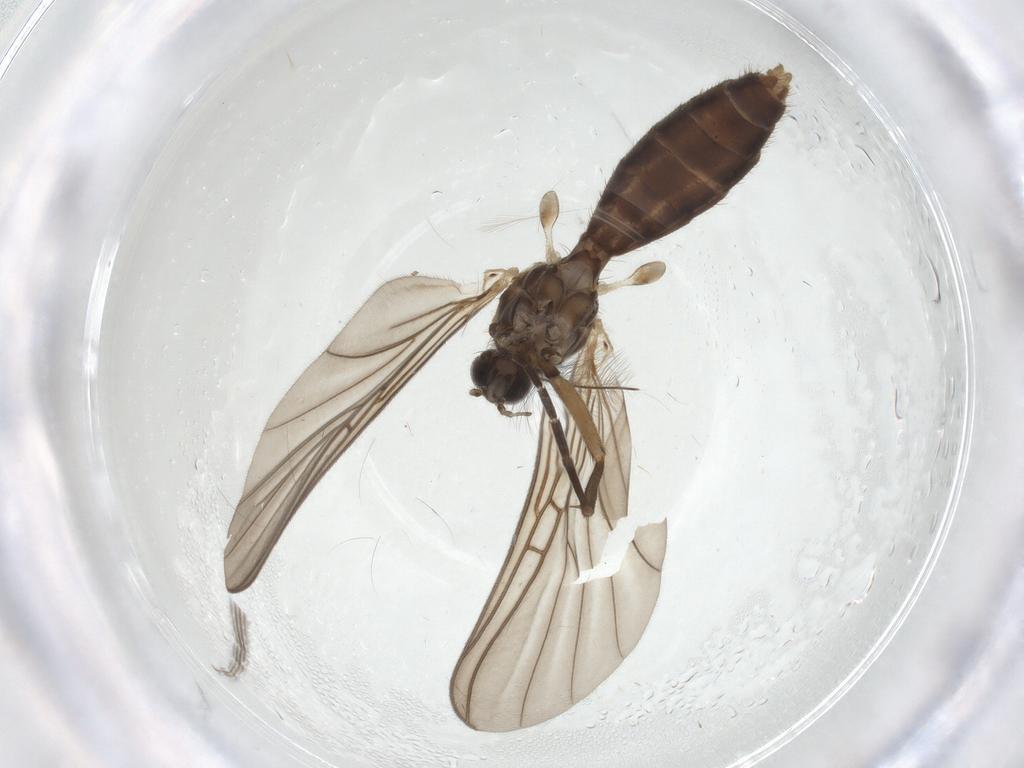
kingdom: Animalia
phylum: Arthropoda
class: Insecta
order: Diptera
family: Mycetophilidae
